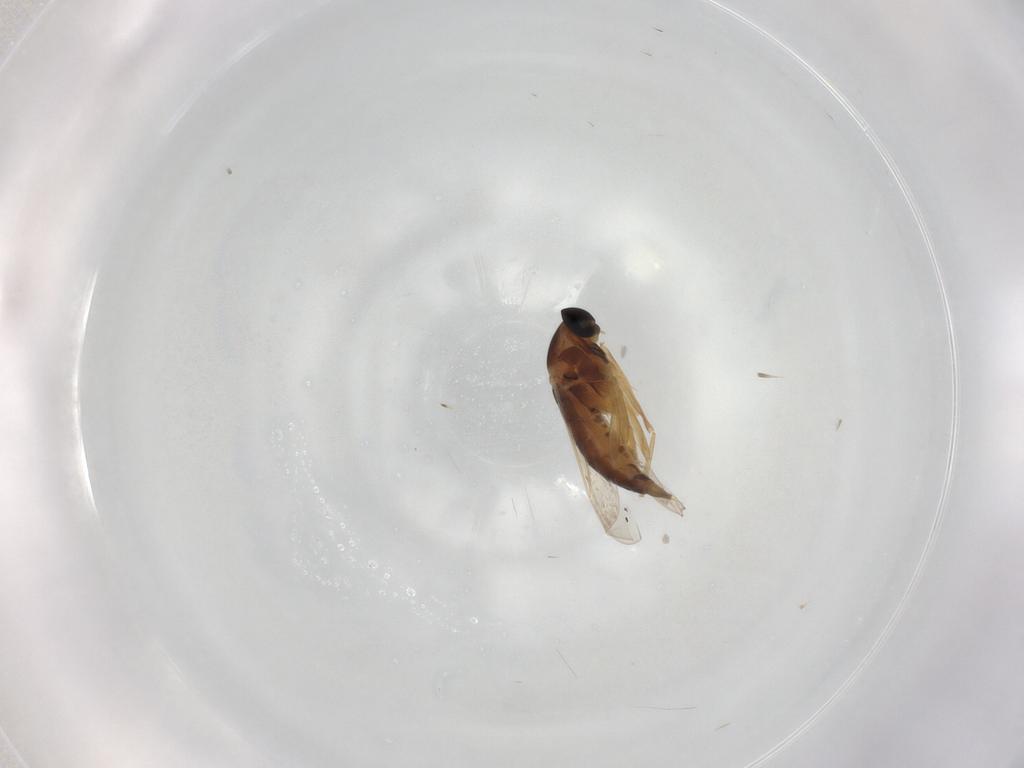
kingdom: Animalia
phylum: Arthropoda
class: Insecta
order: Diptera
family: Cecidomyiidae
